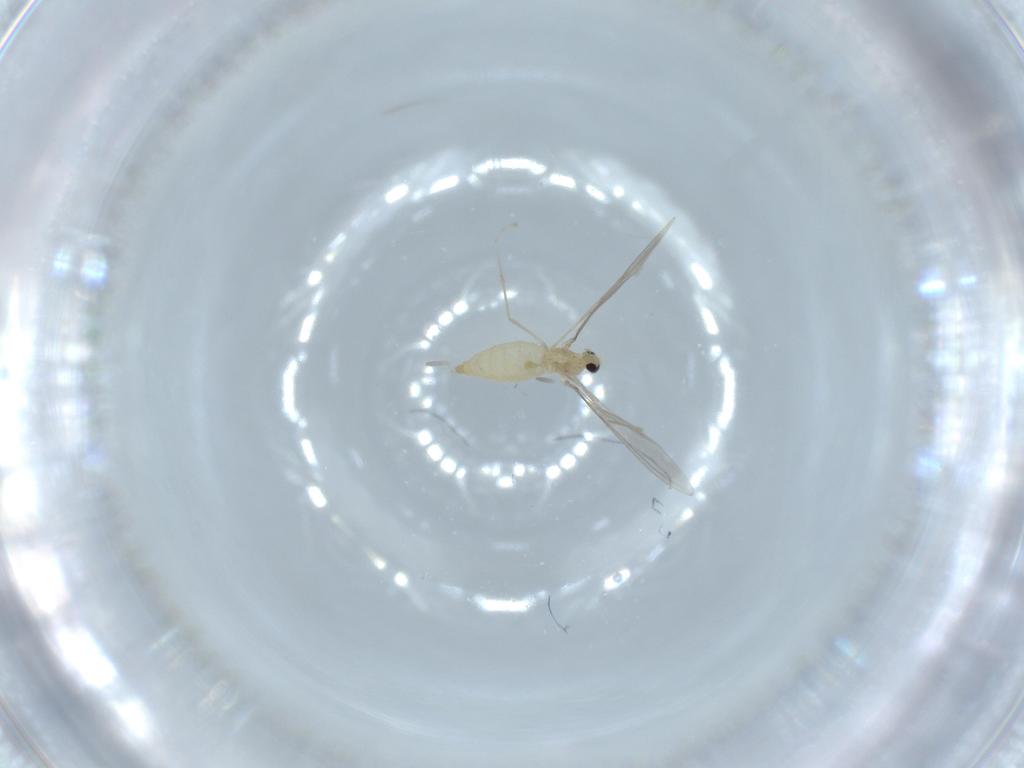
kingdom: Animalia
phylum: Arthropoda
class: Insecta
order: Diptera
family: Cecidomyiidae
